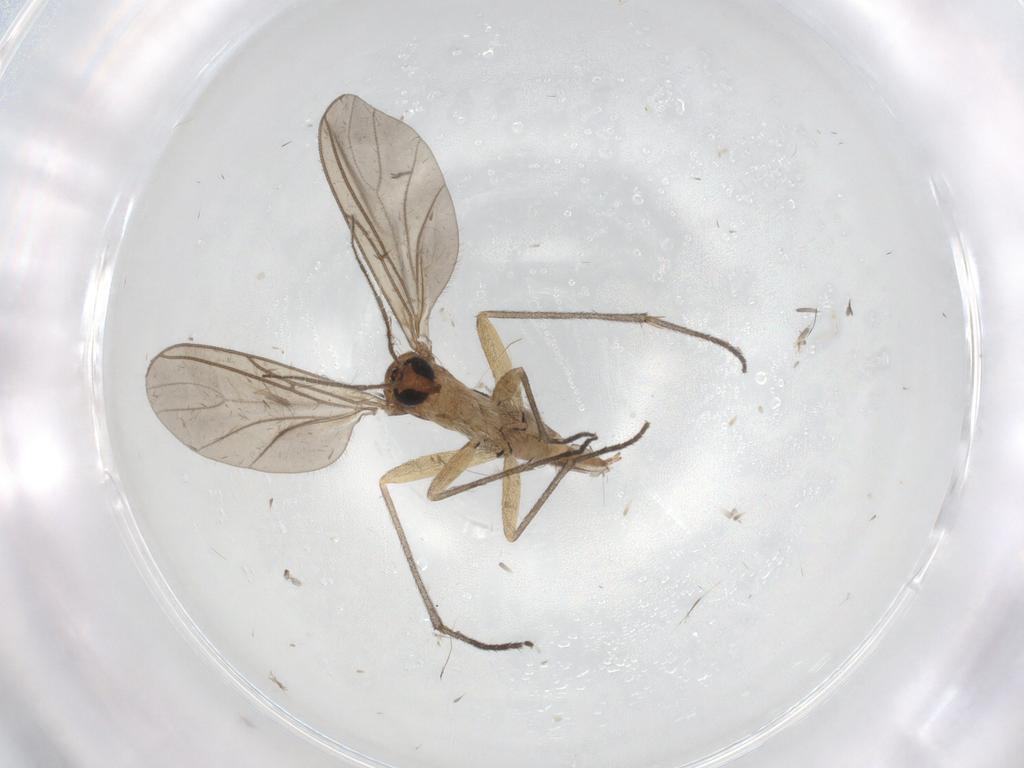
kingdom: Animalia
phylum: Arthropoda
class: Insecta
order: Diptera
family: Sciaridae
